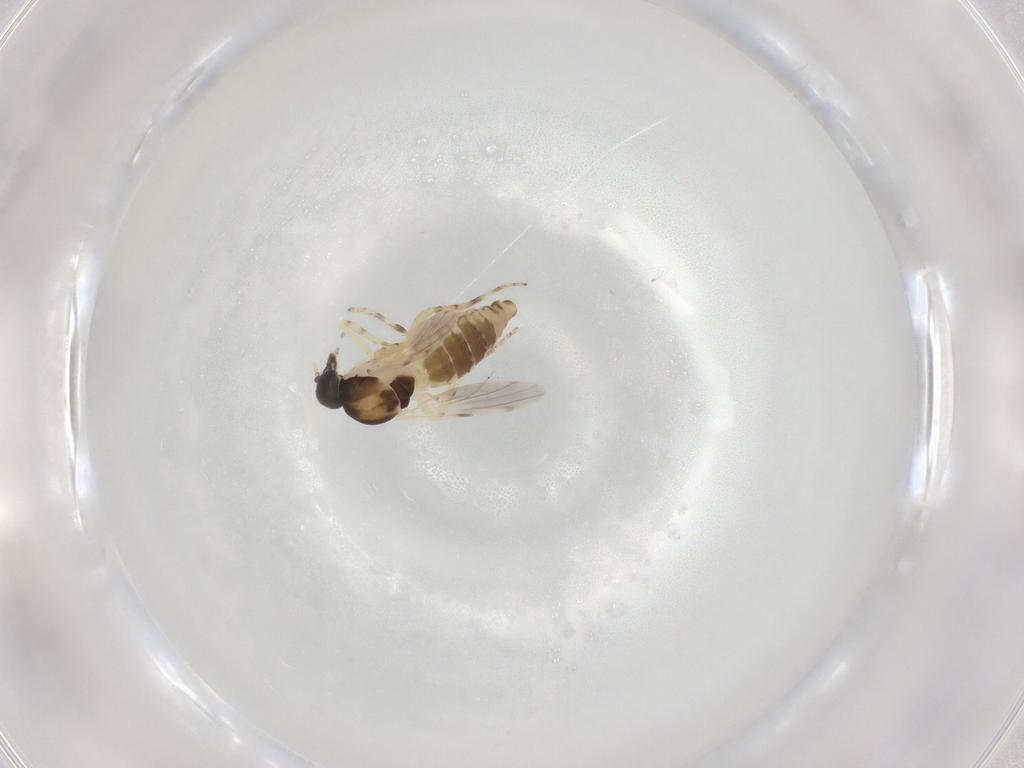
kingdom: Animalia
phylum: Arthropoda
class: Insecta
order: Diptera
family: Ceratopogonidae
